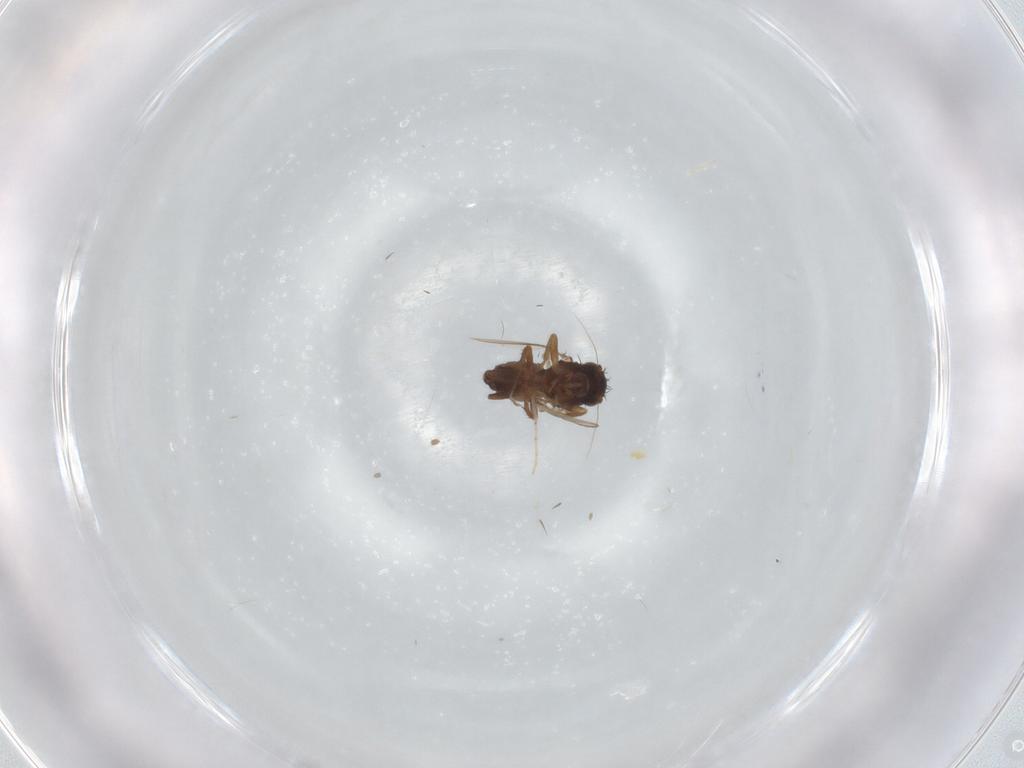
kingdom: Animalia
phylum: Arthropoda
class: Insecta
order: Diptera
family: Sphaeroceridae
